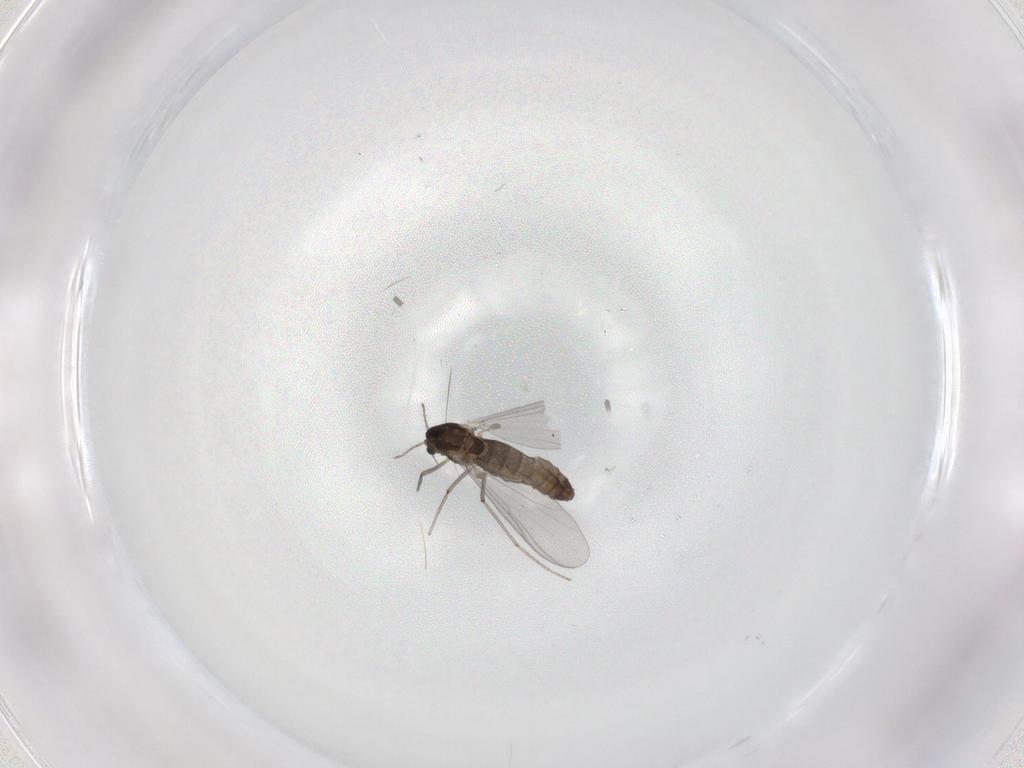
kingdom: Animalia
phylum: Arthropoda
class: Insecta
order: Diptera
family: Chironomidae
